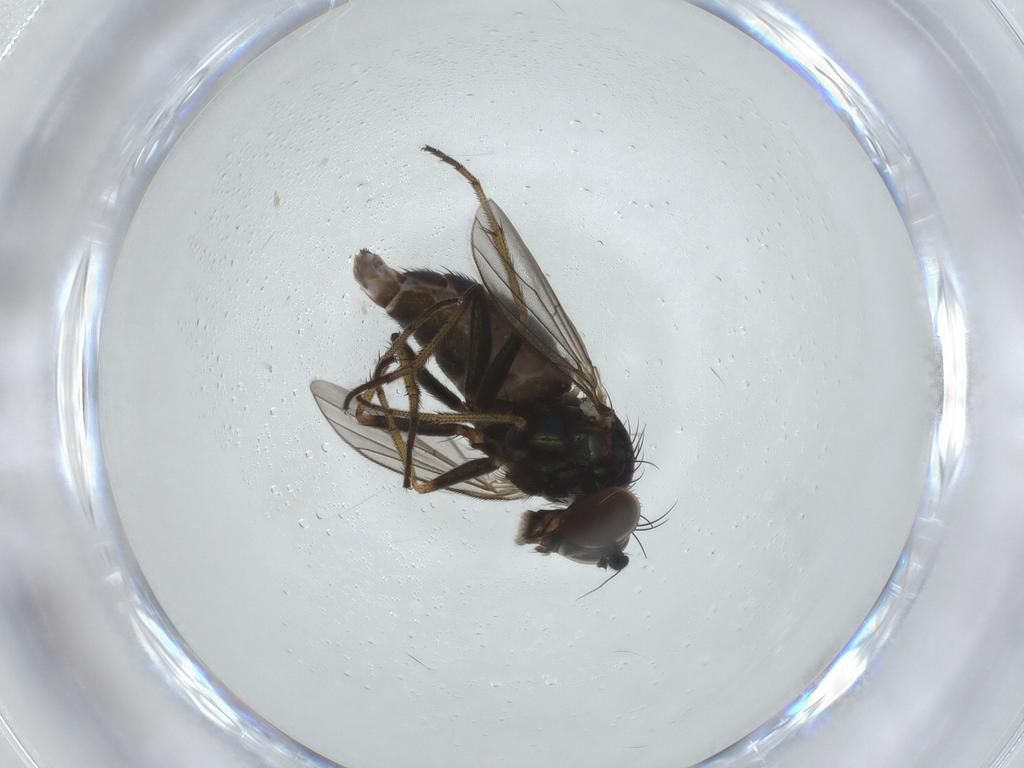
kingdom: Animalia
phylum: Arthropoda
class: Insecta
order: Diptera
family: Dolichopodidae
